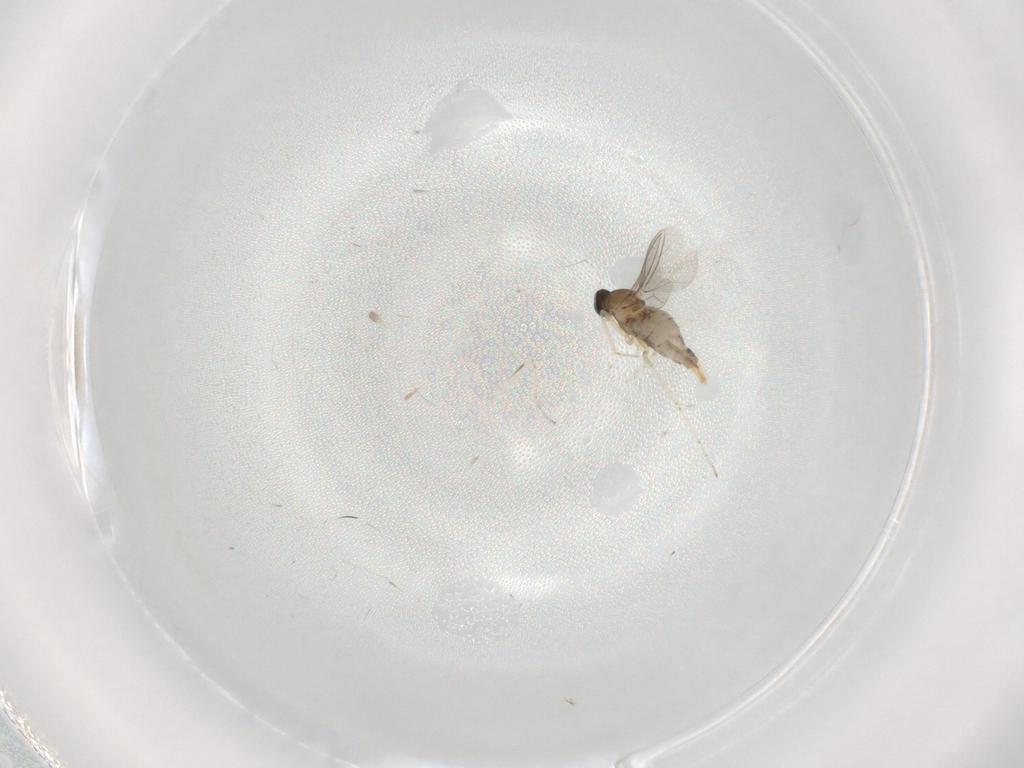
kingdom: Animalia
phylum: Arthropoda
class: Insecta
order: Diptera
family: Cecidomyiidae
